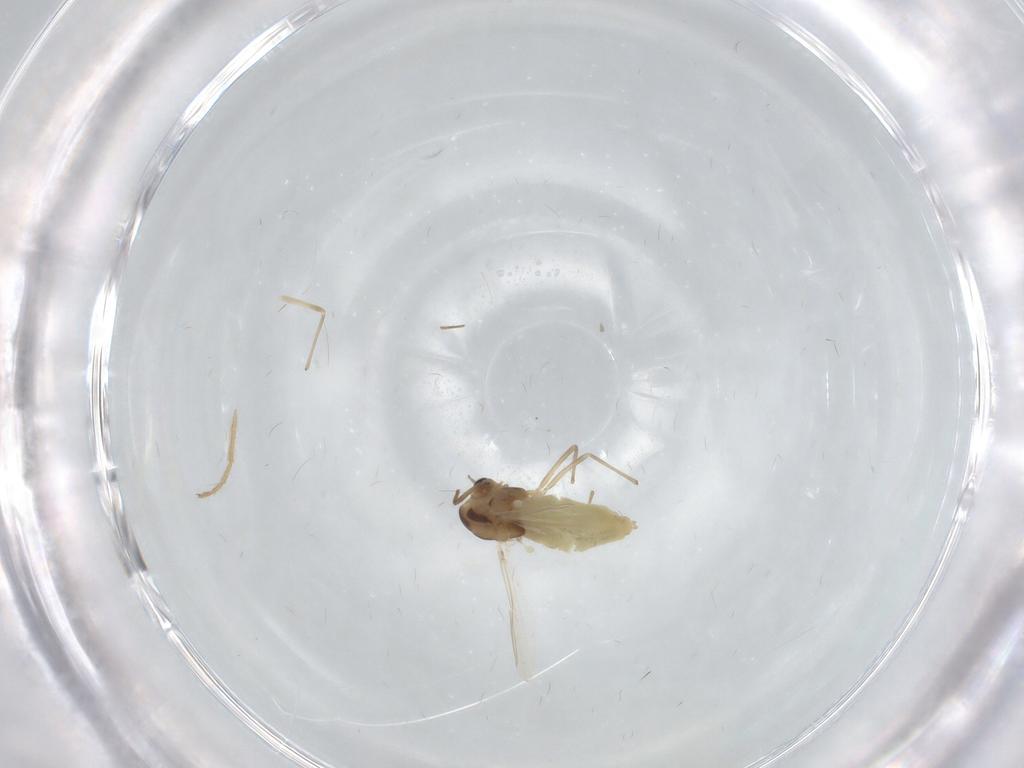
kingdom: Animalia
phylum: Arthropoda
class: Insecta
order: Diptera
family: Chironomidae
